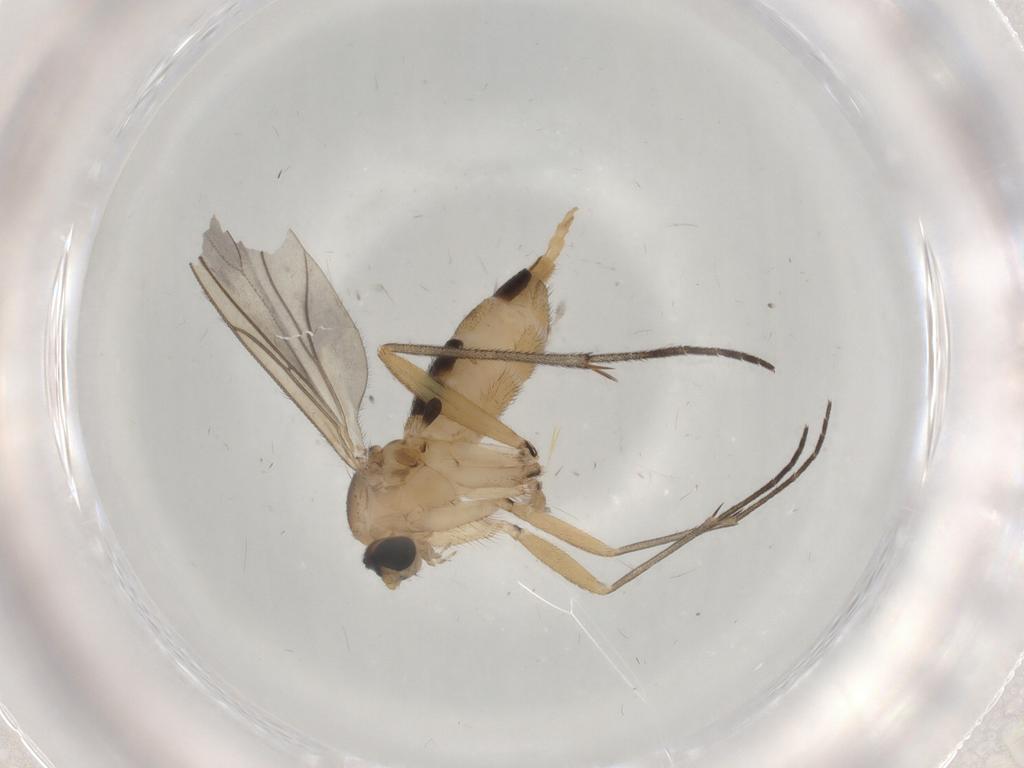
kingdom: Animalia
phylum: Arthropoda
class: Insecta
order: Diptera
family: Sciaridae
